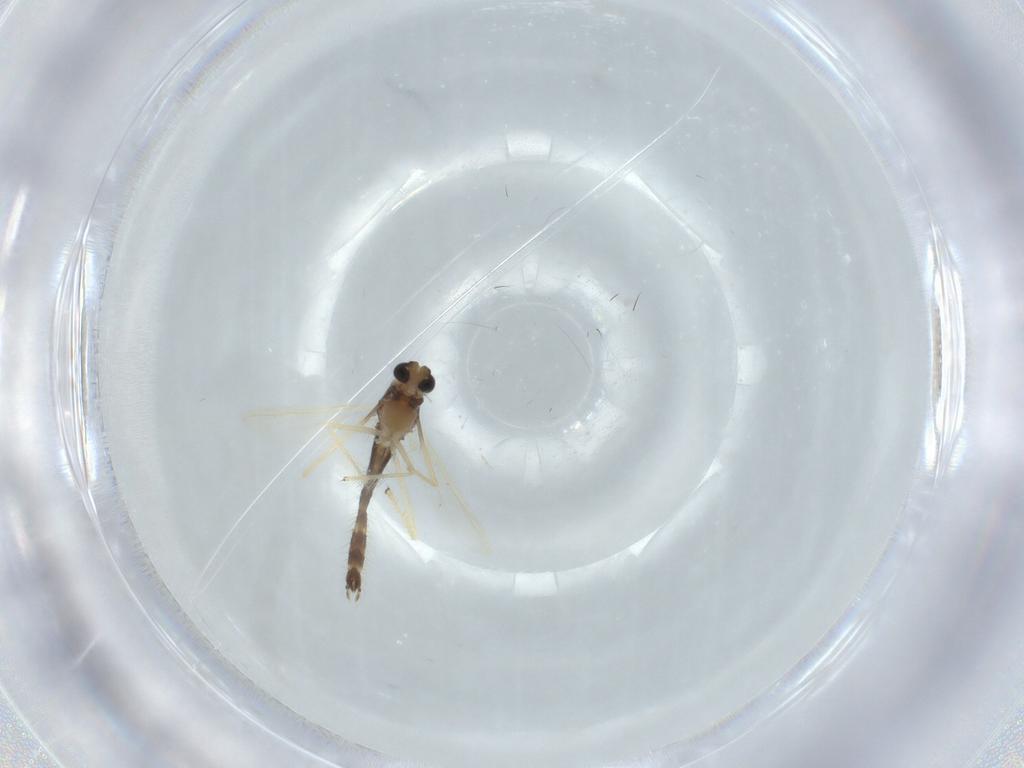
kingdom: Animalia
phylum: Arthropoda
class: Insecta
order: Diptera
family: Chironomidae
